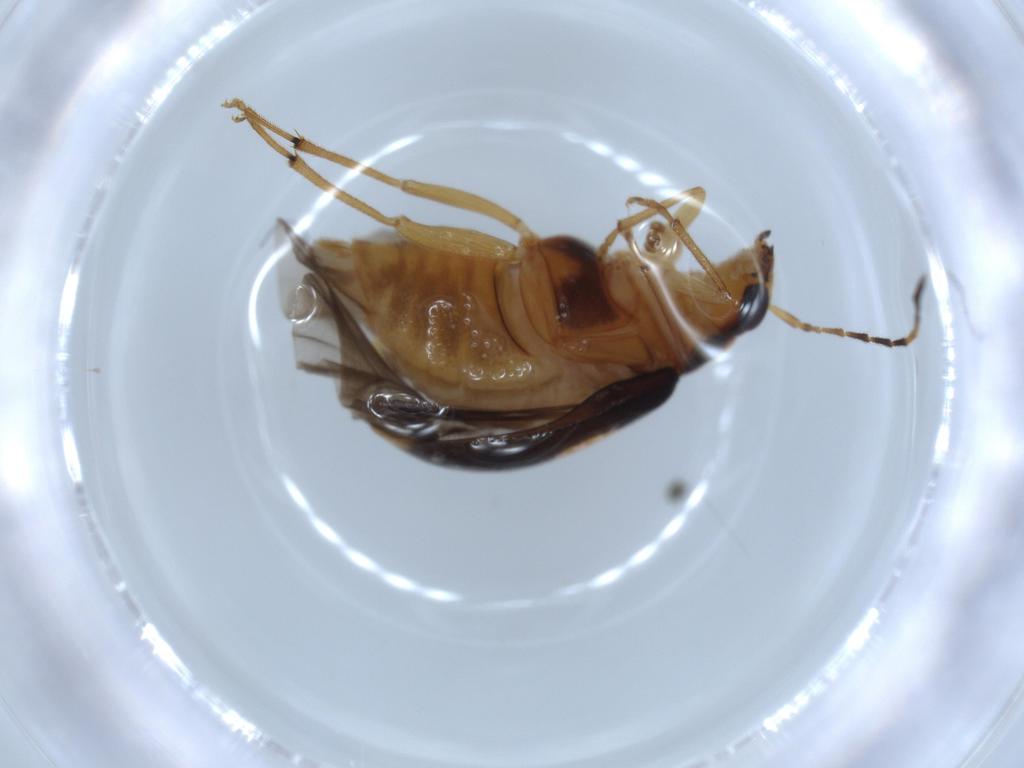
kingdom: Animalia
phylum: Arthropoda
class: Insecta
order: Coleoptera
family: Chrysomelidae
